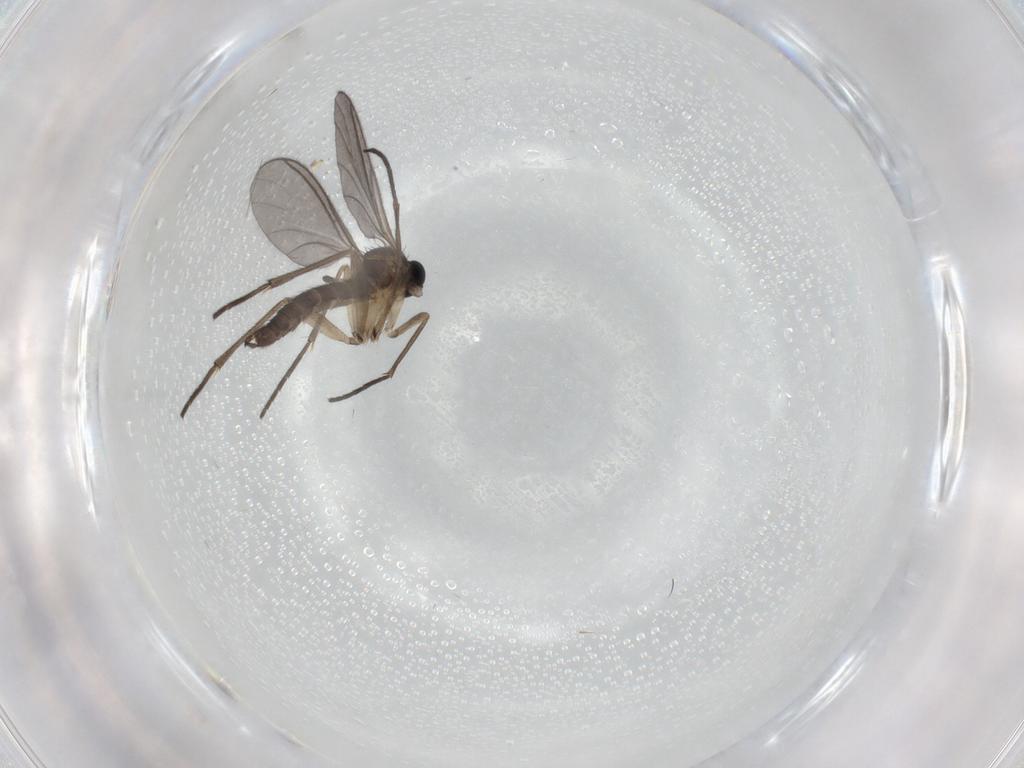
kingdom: Animalia
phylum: Arthropoda
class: Insecta
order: Diptera
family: Sciaridae
